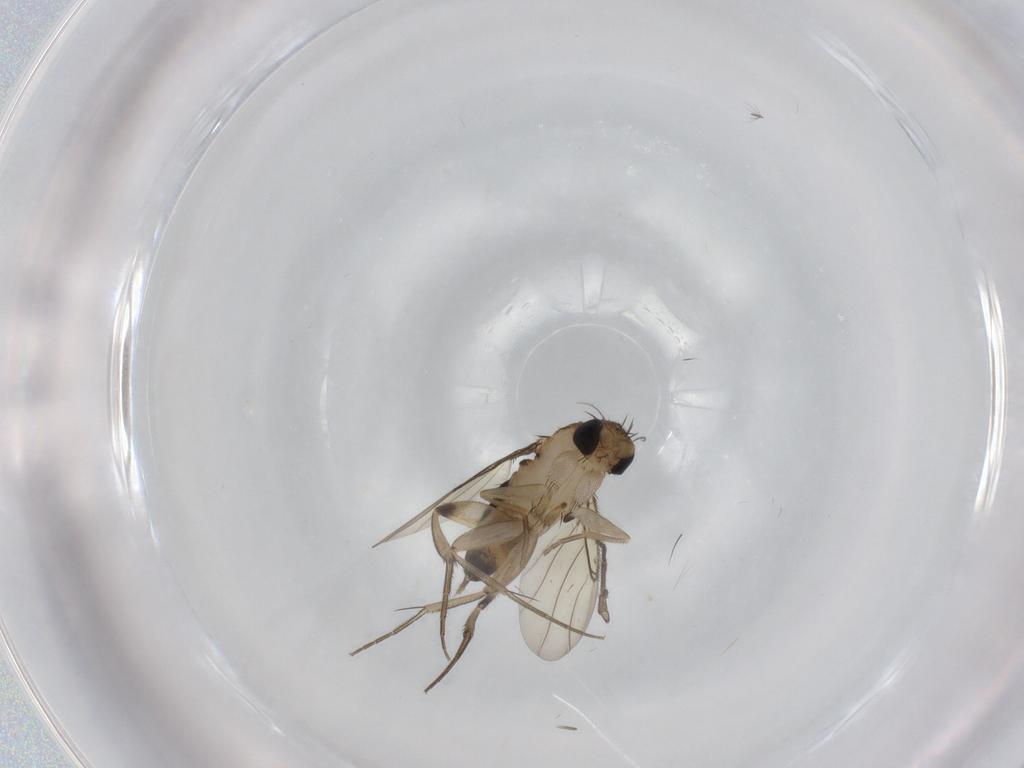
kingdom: Animalia
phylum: Arthropoda
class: Insecta
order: Diptera
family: Phoridae
